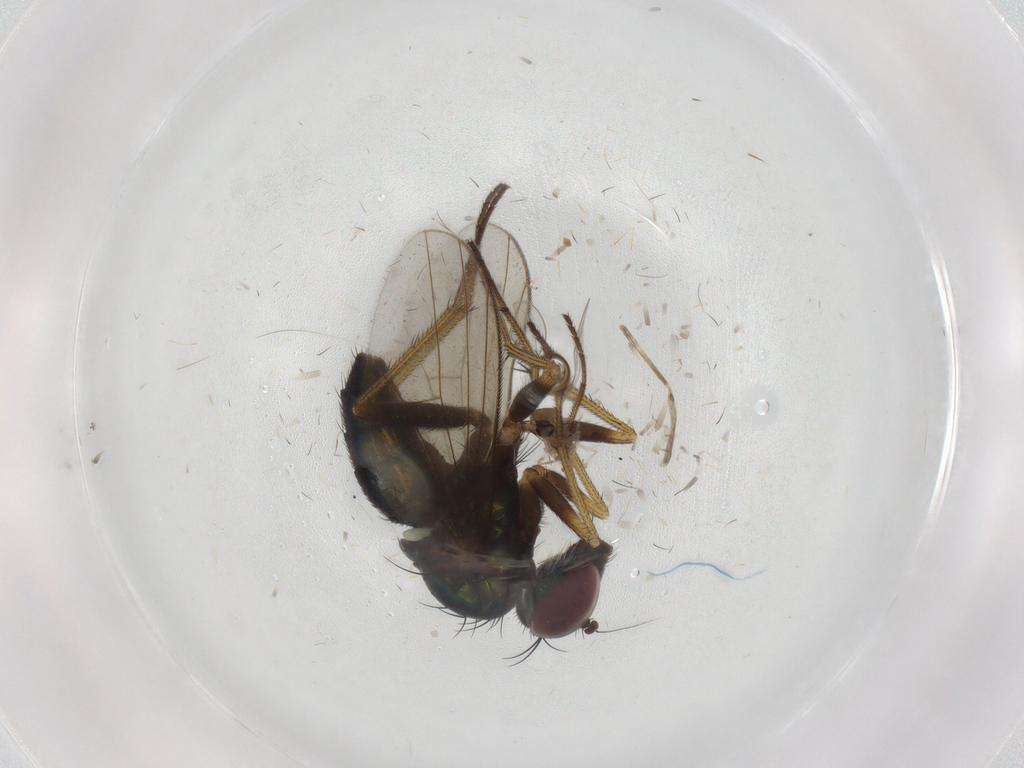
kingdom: Animalia
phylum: Arthropoda
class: Insecta
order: Diptera
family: Dolichopodidae
